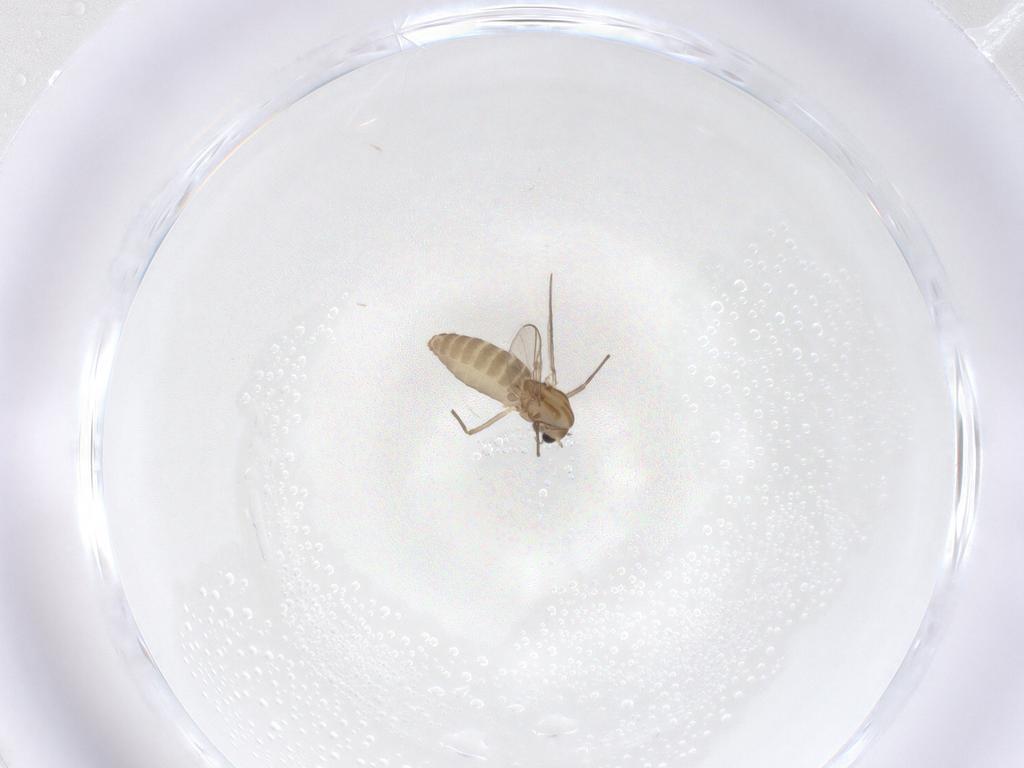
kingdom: Animalia
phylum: Arthropoda
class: Insecta
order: Diptera
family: Chironomidae
